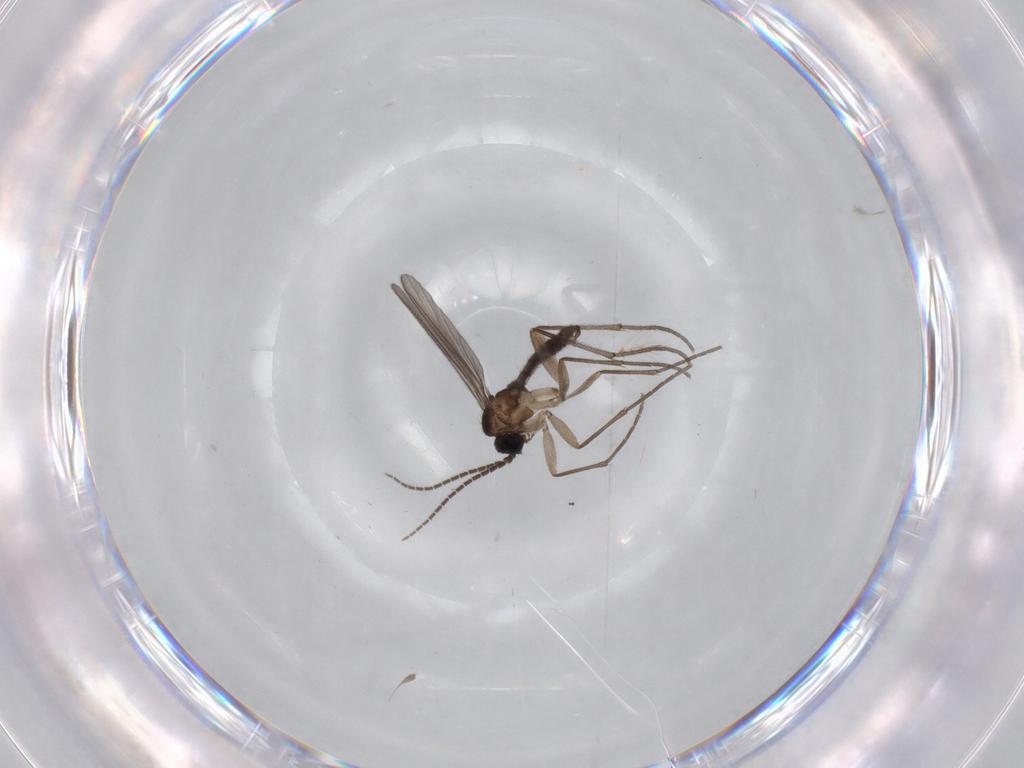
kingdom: Animalia
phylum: Arthropoda
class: Insecta
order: Diptera
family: Sciaridae
